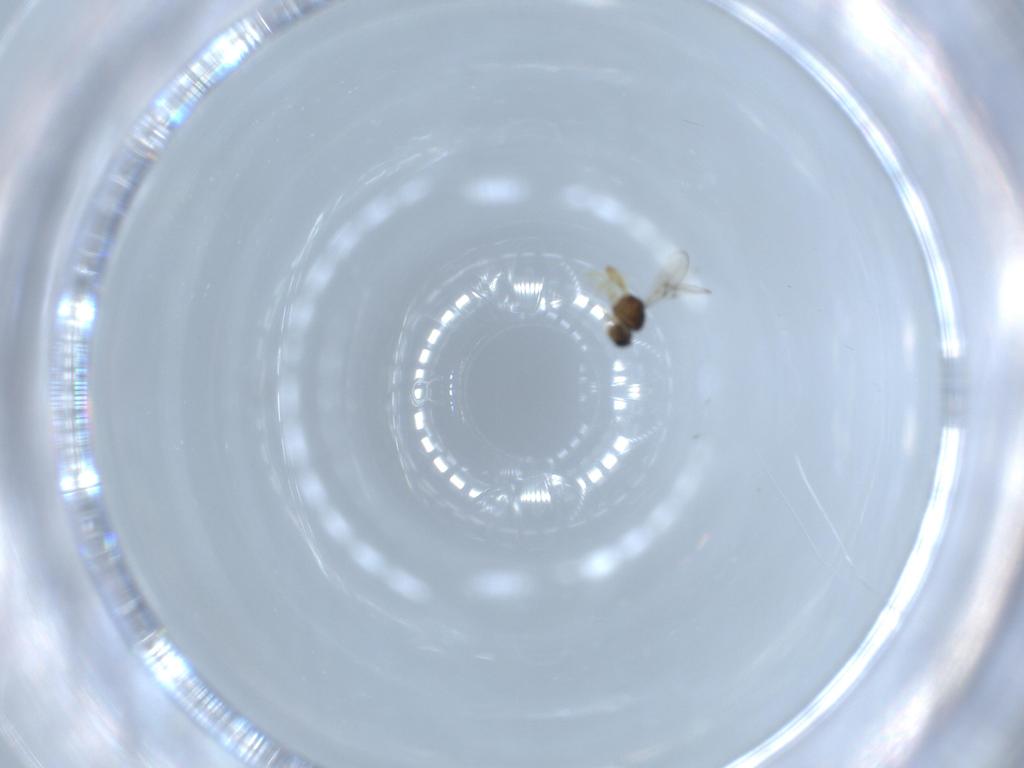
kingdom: Animalia
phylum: Arthropoda
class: Insecta
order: Hymenoptera
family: Scelionidae
